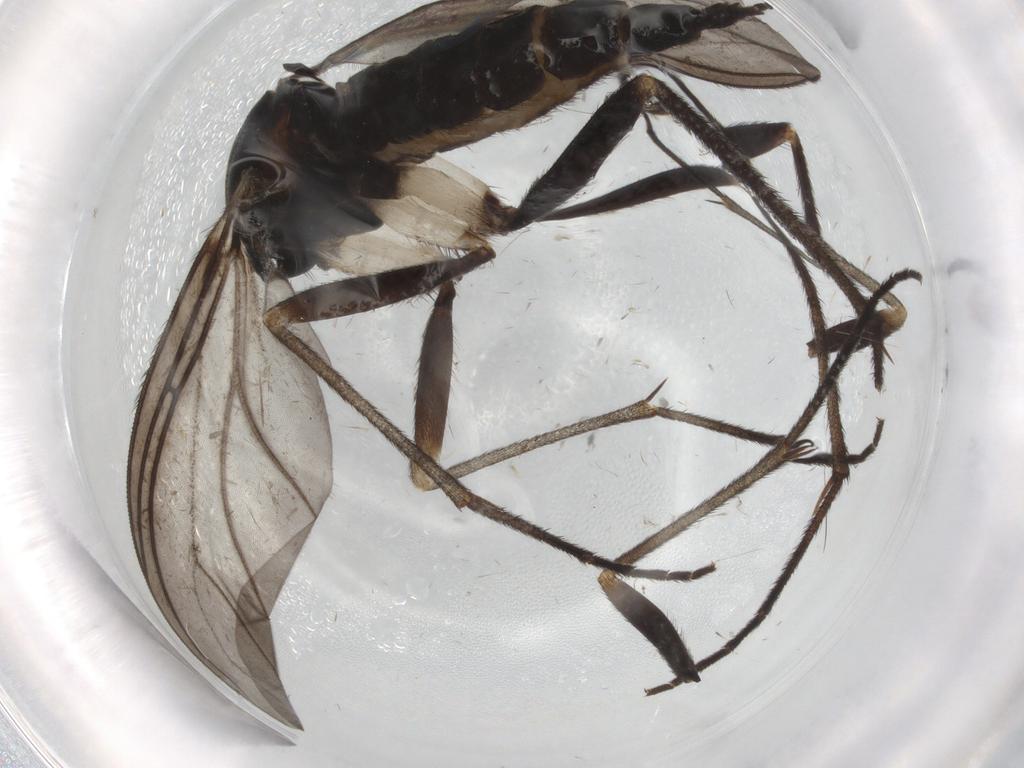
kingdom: Animalia
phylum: Arthropoda
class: Insecta
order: Diptera
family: Sciaridae
